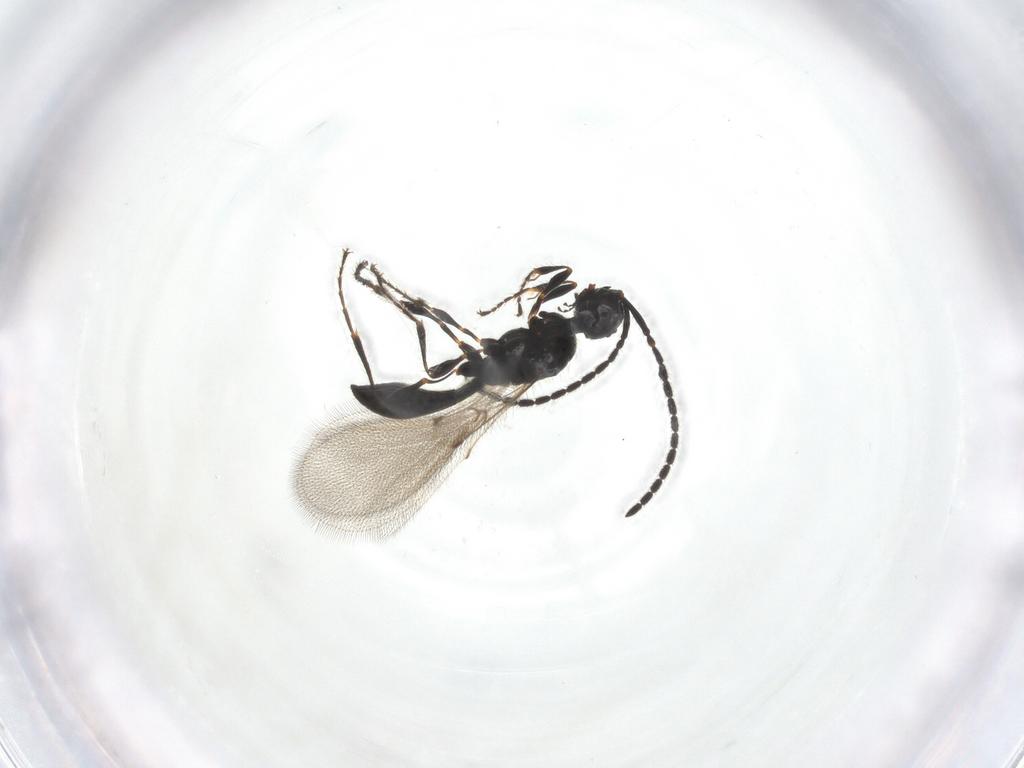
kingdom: Animalia
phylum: Arthropoda
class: Insecta
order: Hymenoptera
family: Diapriidae
